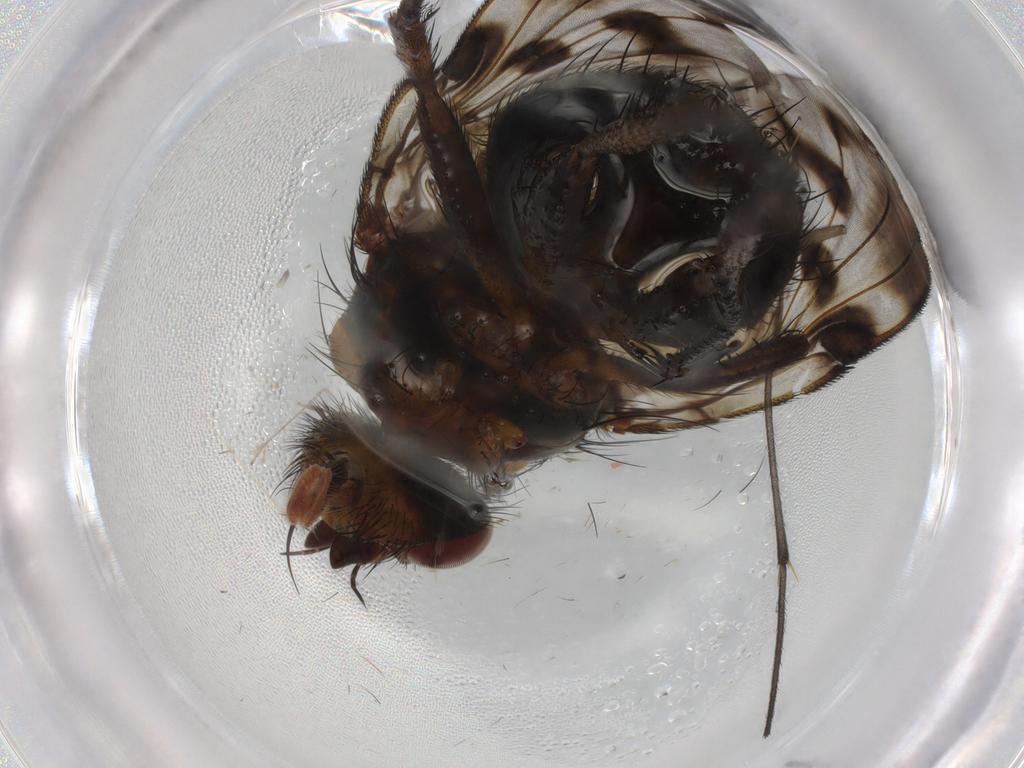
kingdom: Animalia
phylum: Arthropoda
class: Insecta
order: Diptera
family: Sciaridae
